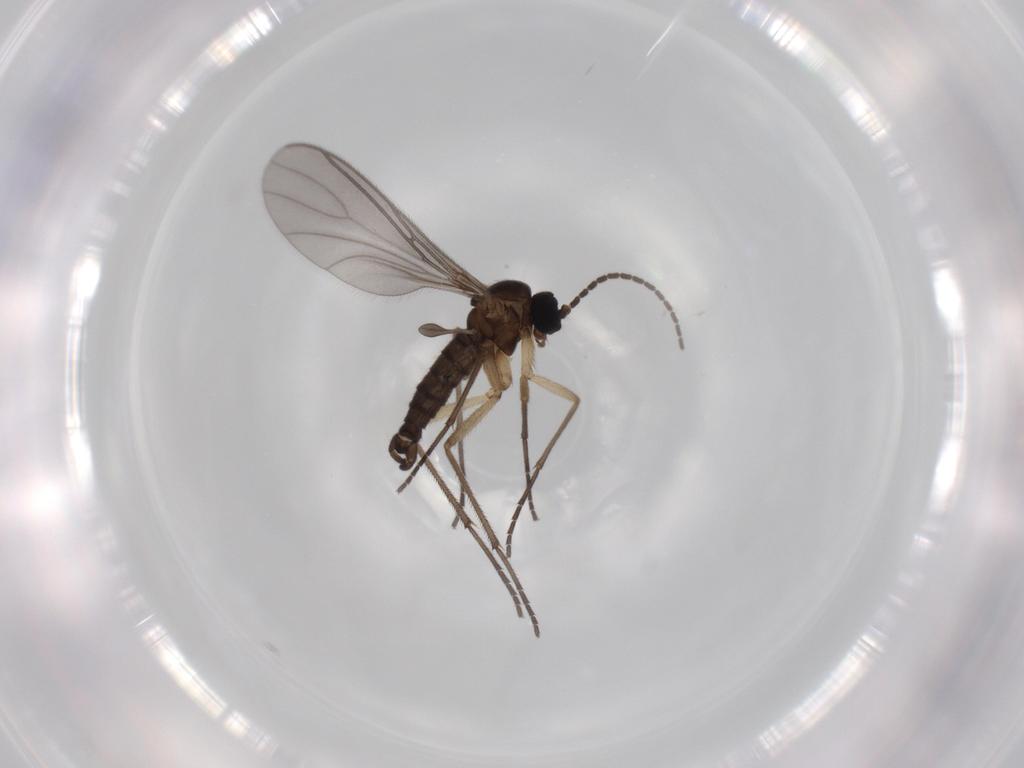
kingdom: Animalia
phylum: Arthropoda
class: Insecta
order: Diptera
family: Sciaridae
